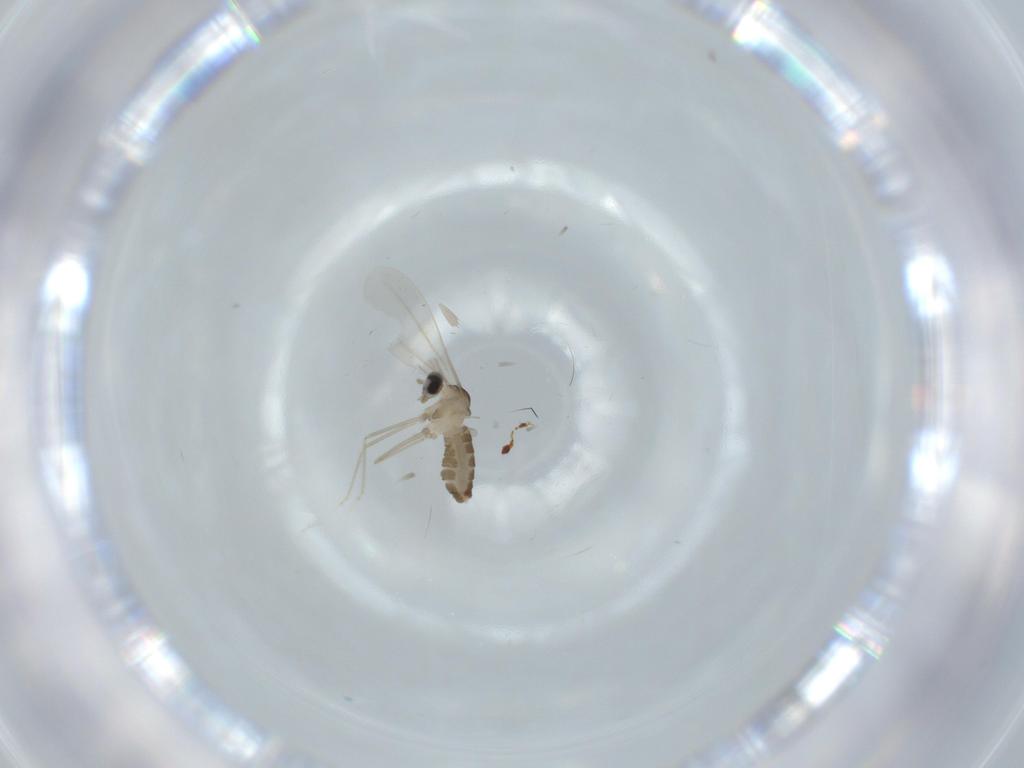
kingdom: Animalia
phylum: Arthropoda
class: Insecta
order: Diptera
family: Cecidomyiidae
